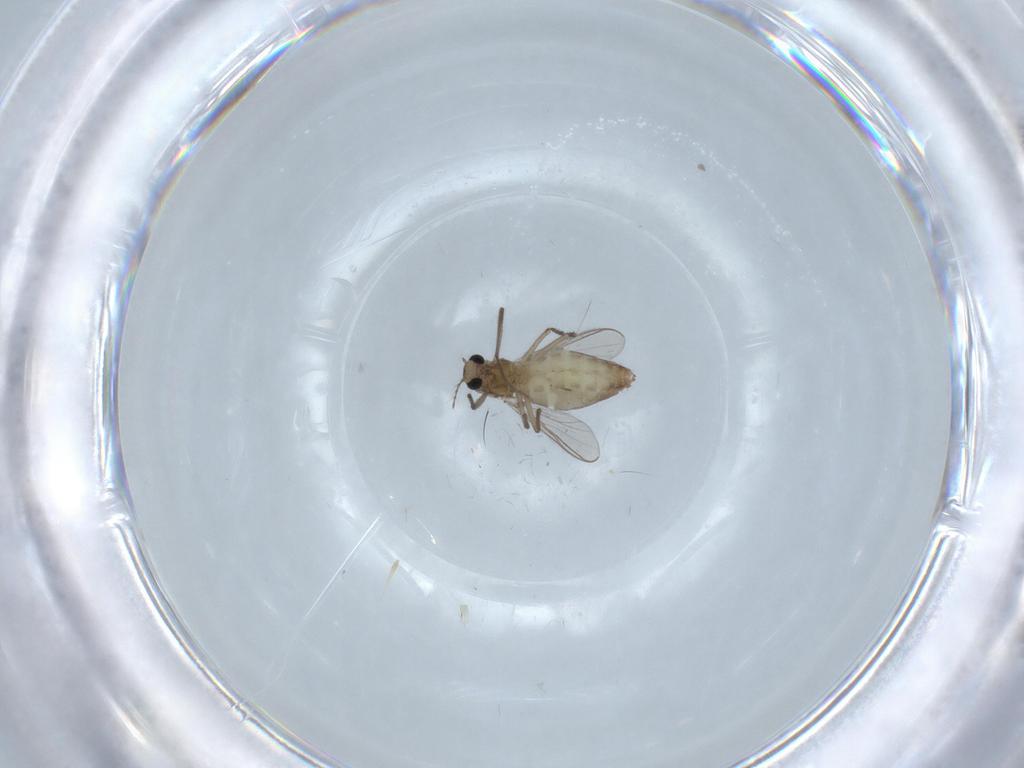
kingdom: Animalia
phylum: Arthropoda
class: Insecta
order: Diptera
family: Chironomidae
